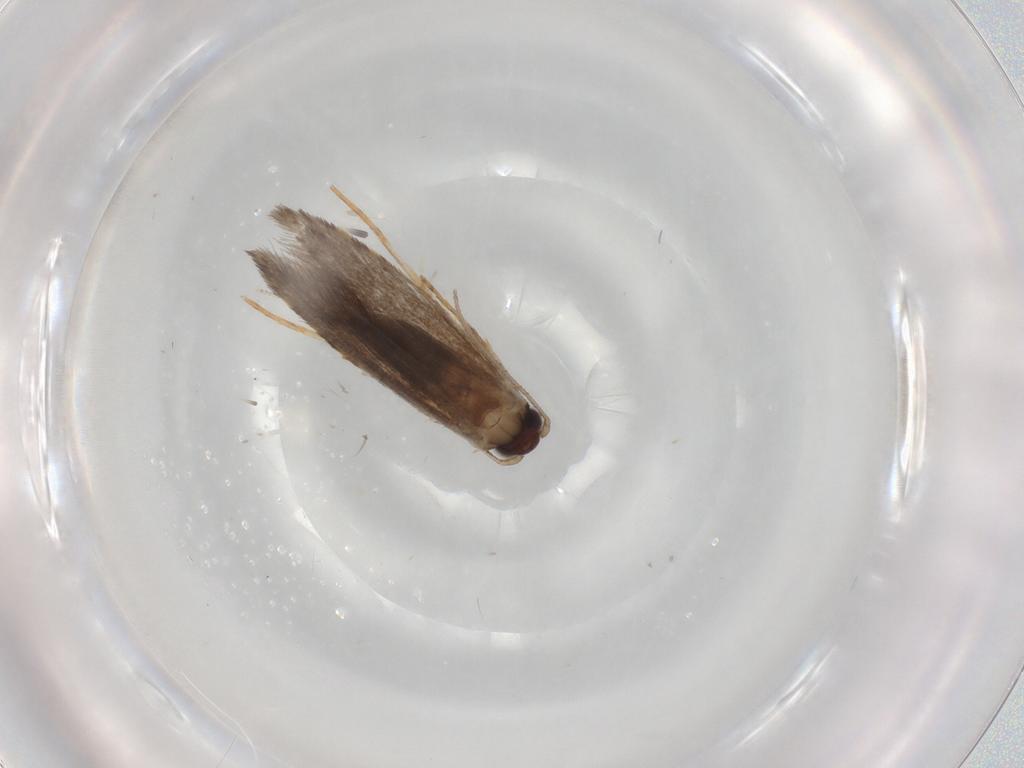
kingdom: Animalia
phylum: Arthropoda
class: Insecta
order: Lepidoptera
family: Tineidae
